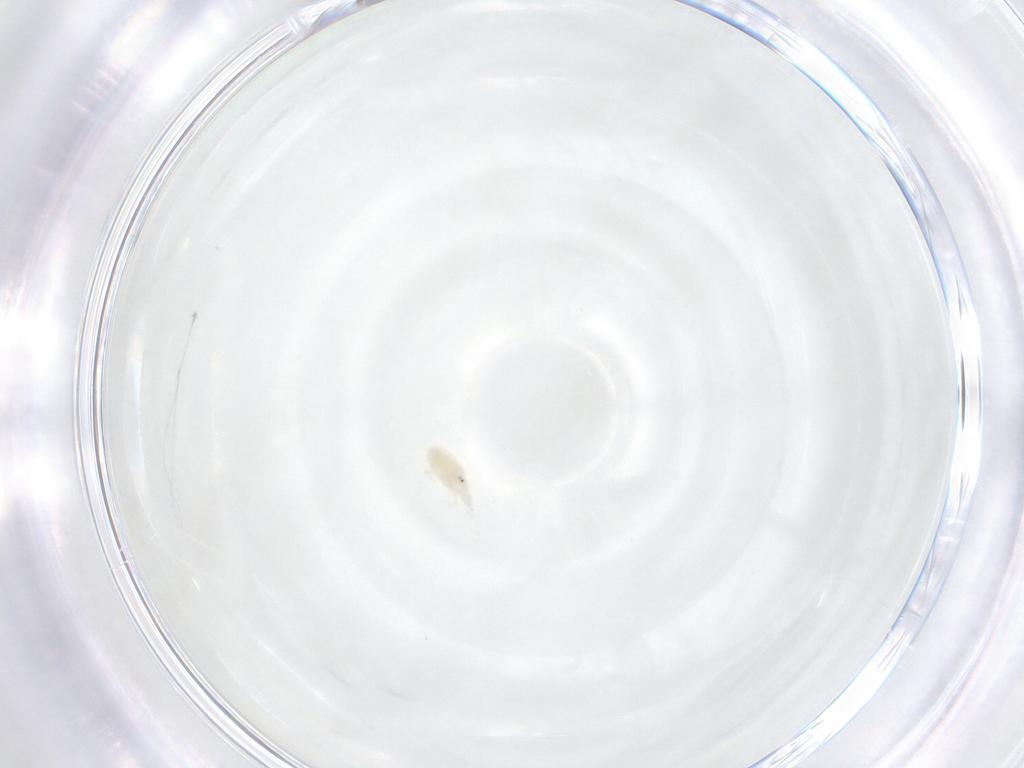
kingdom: Animalia
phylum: Arthropoda
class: Arachnida
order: Trombidiformes
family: Bdellidae
